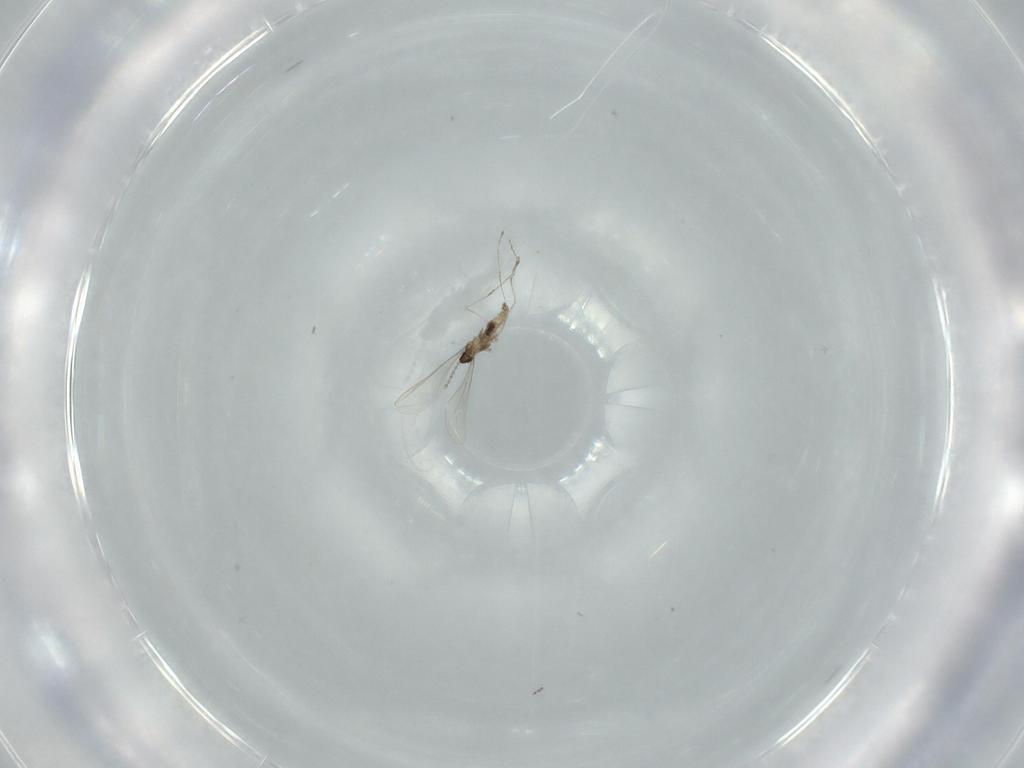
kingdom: Animalia
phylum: Arthropoda
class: Insecta
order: Diptera
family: Cecidomyiidae
